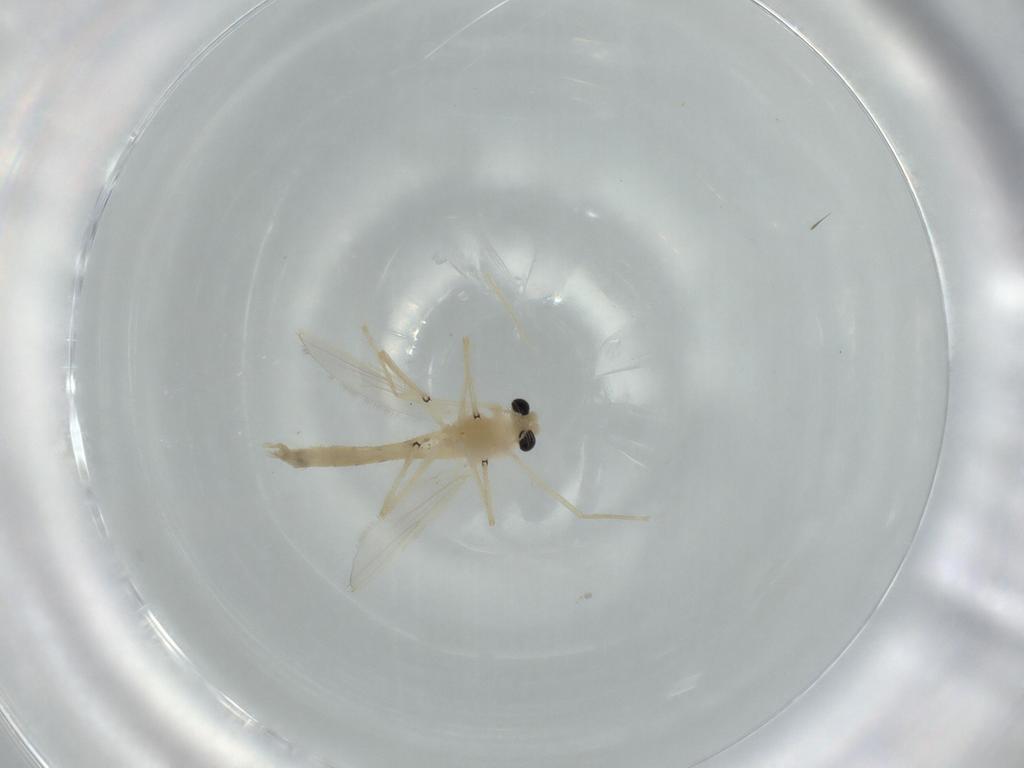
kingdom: Animalia
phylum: Arthropoda
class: Insecta
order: Diptera
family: Chironomidae
